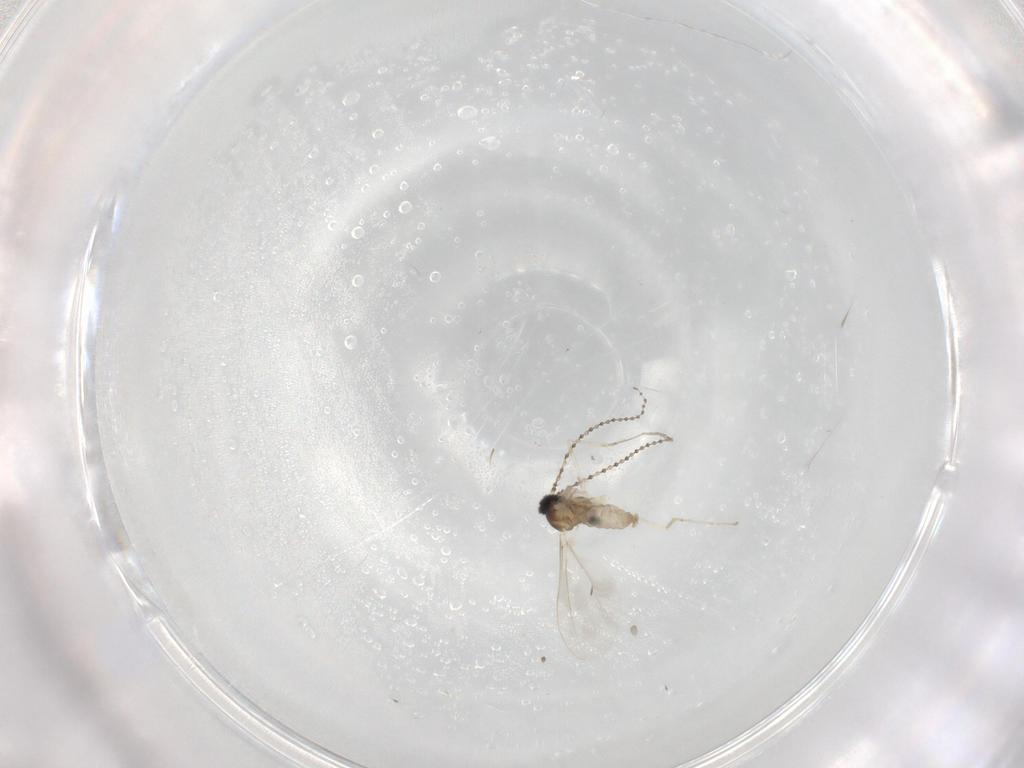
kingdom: Animalia
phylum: Arthropoda
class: Insecta
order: Diptera
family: Cecidomyiidae
